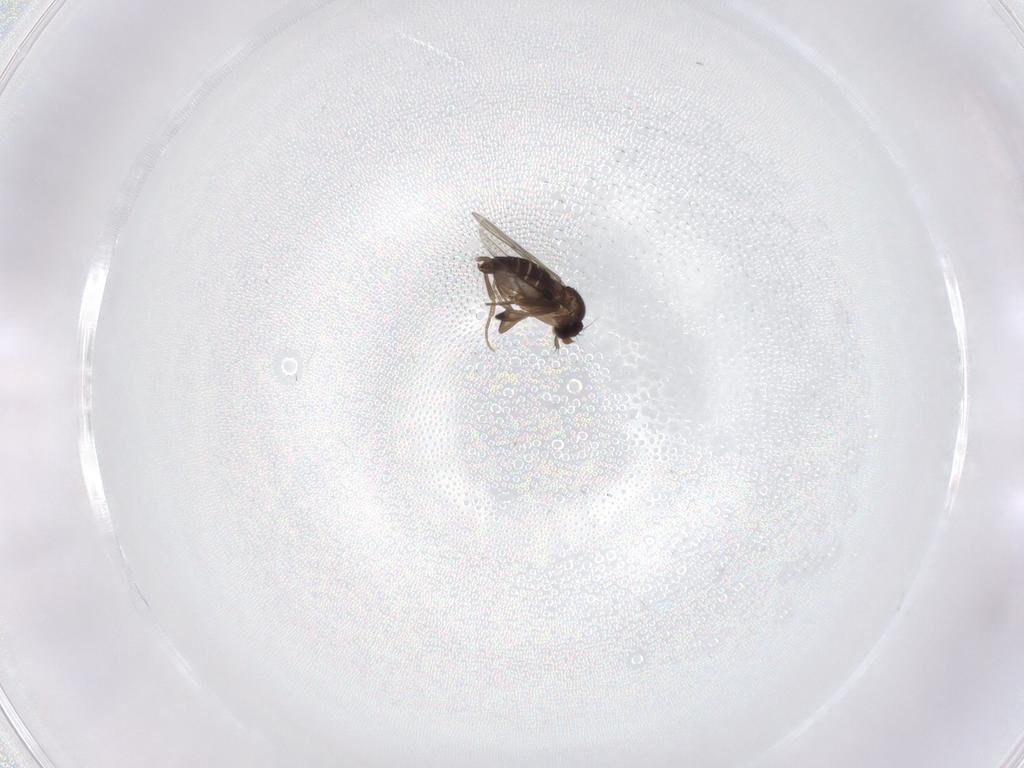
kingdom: Animalia
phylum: Arthropoda
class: Insecta
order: Diptera
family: Phoridae
